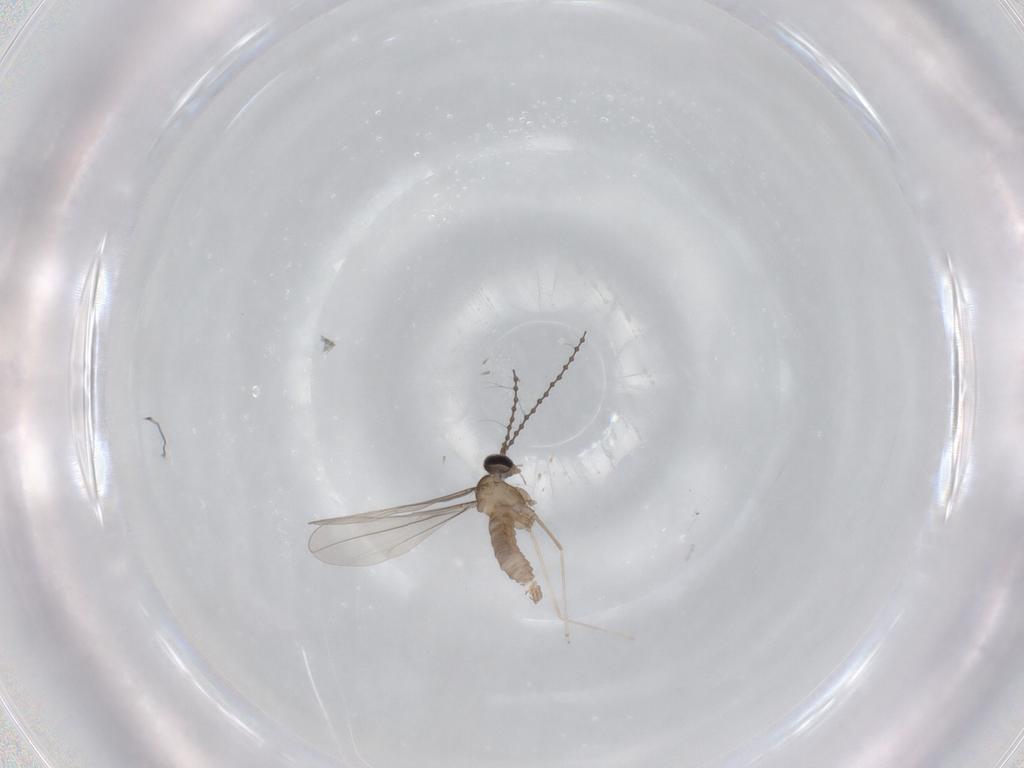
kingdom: Animalia
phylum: Arthropoda
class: Insecta
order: Diptera
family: Cecidomyiidae
